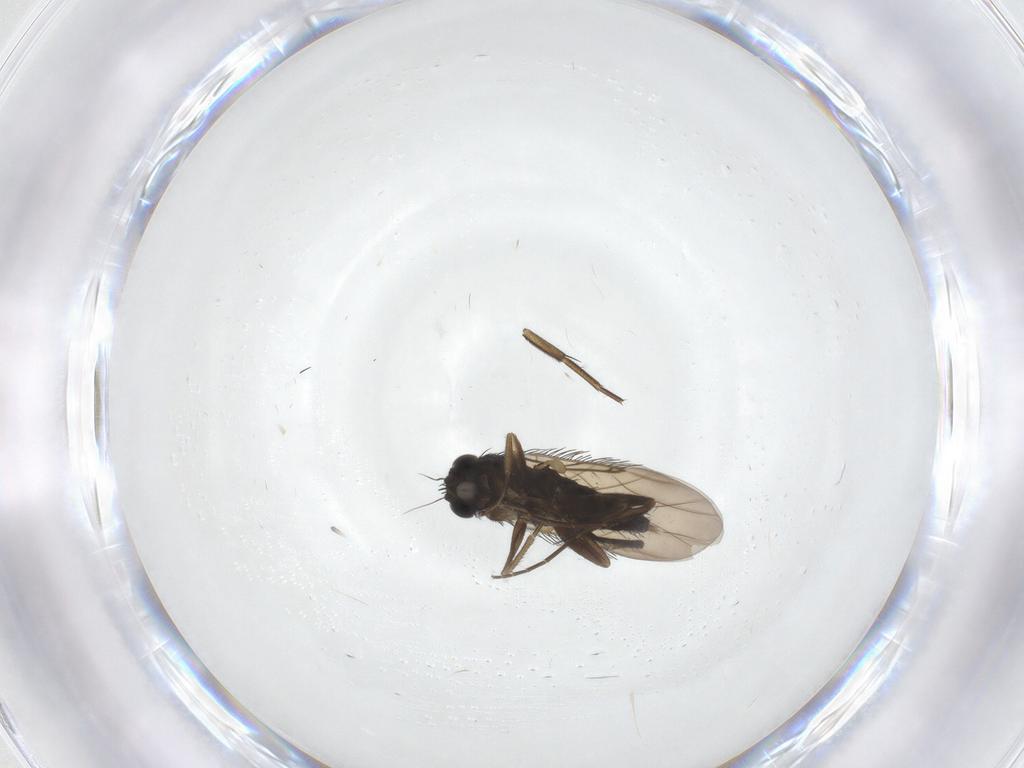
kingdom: Animalia
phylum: Arthropoda
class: Insecta
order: Diptera
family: Phoridae
